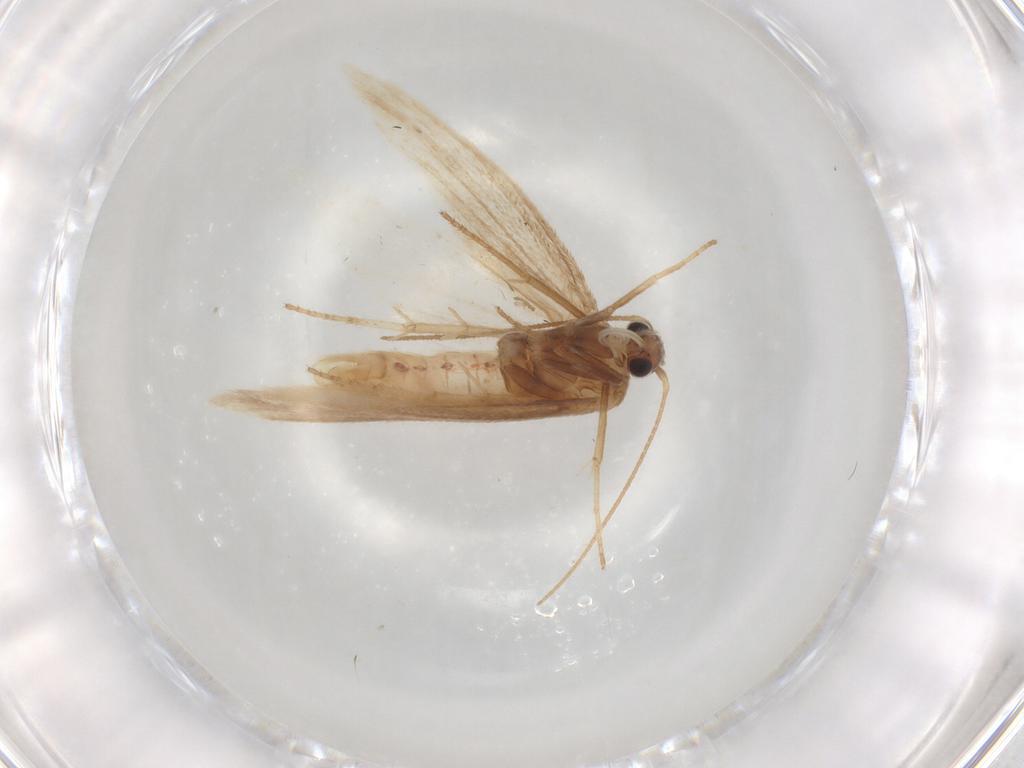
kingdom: Animalia
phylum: Arthropoda
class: Insecta
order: Lepidoptera
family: Limacodidae
